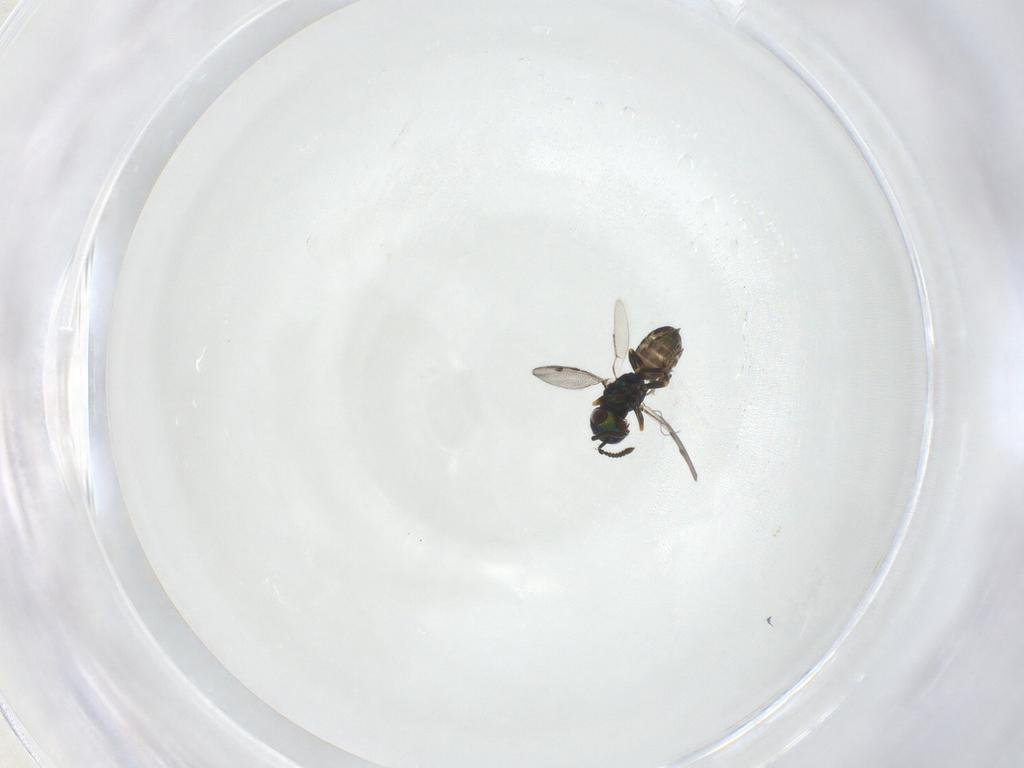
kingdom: Animalia
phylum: Arthropoda
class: Insecta
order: Hymenoptera
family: Pteromalidae
